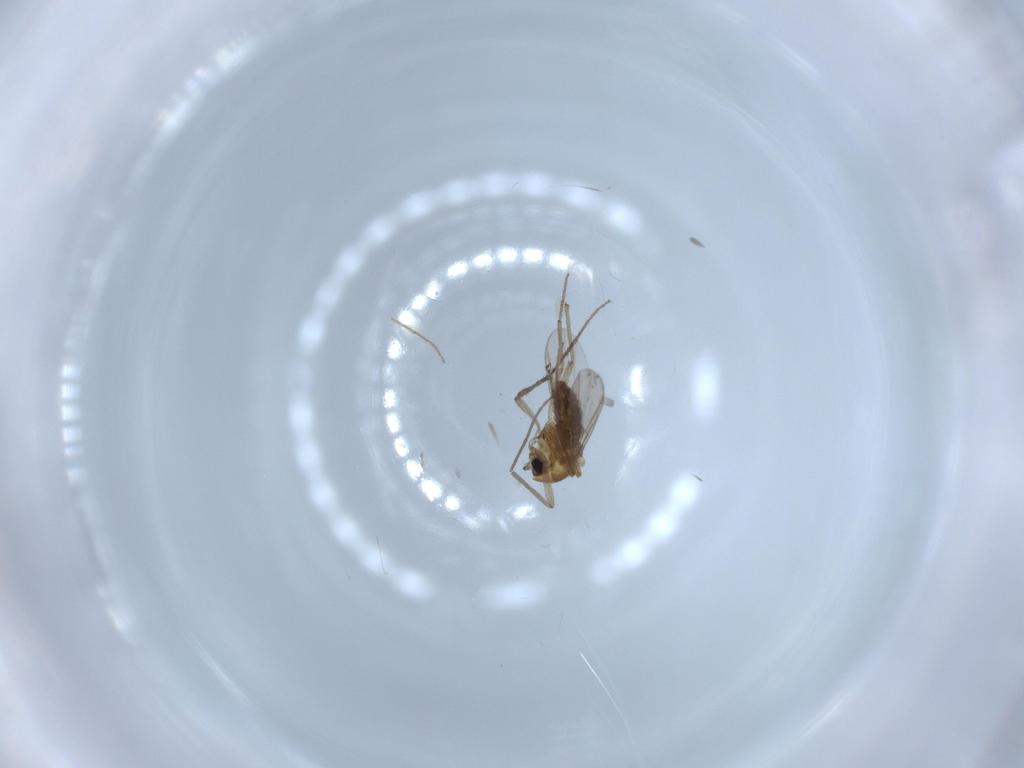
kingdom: Animalia
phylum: Arthropoda
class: Insecta
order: Diptera
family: Chironomidae
